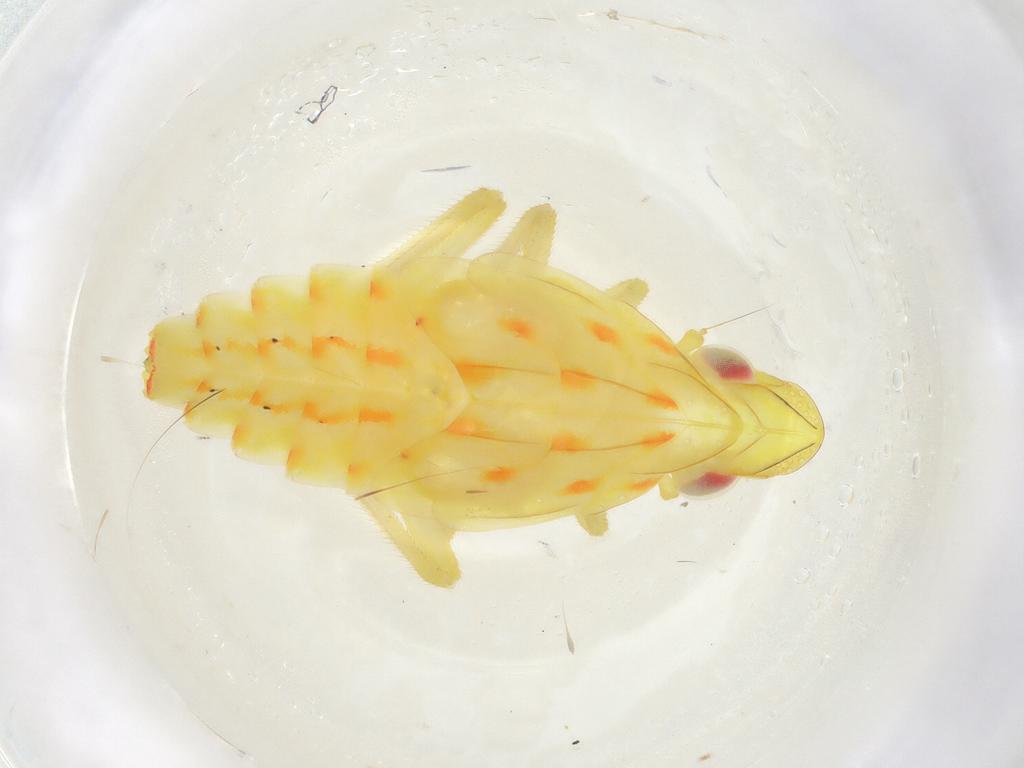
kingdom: Animalia
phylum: Arthropoda
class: Insecta
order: Hemiptera
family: Tropiduchidae
